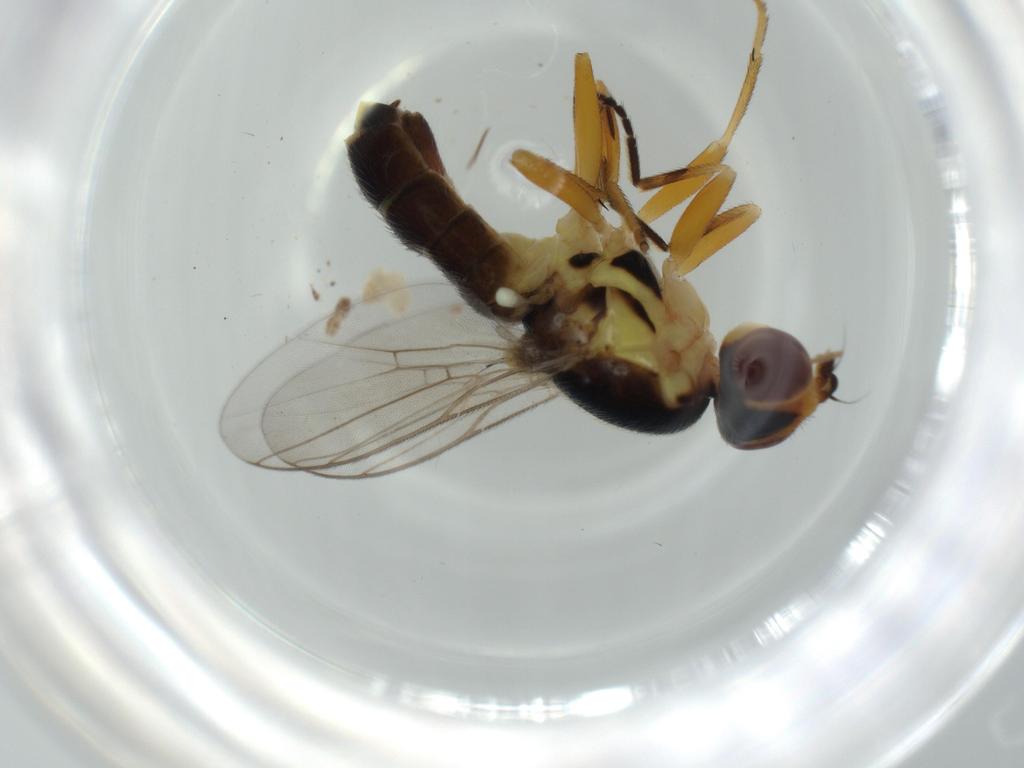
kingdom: Animalia
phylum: Arthropoda
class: Insecta
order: Diptera
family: Chloropidae
